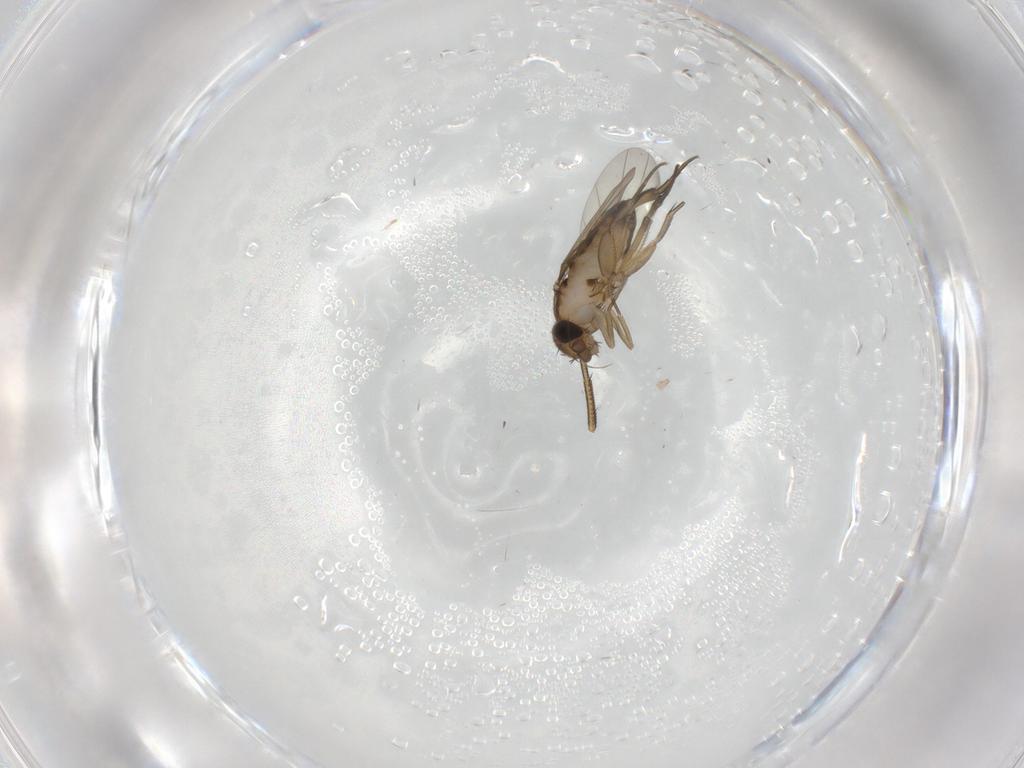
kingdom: Animalia
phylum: Arthropoda
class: Insecta
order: Diptera
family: Phoridae
